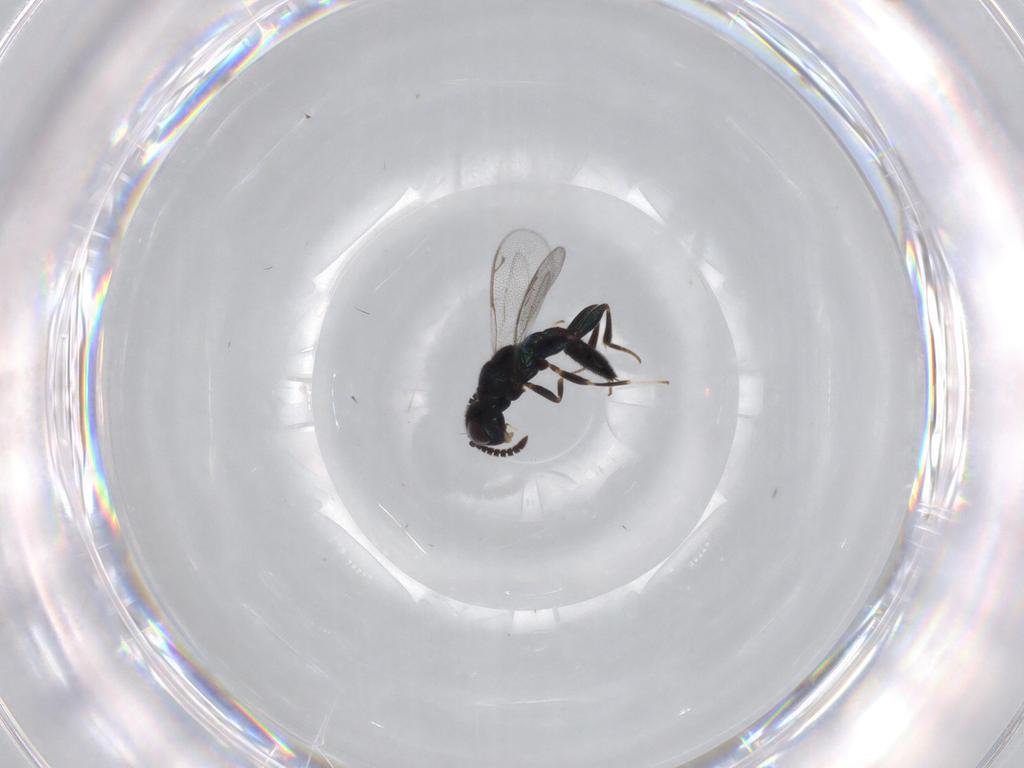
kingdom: Animalia
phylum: Arthropoda
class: Insecta
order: Hymenoptera
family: Cleonyminae
